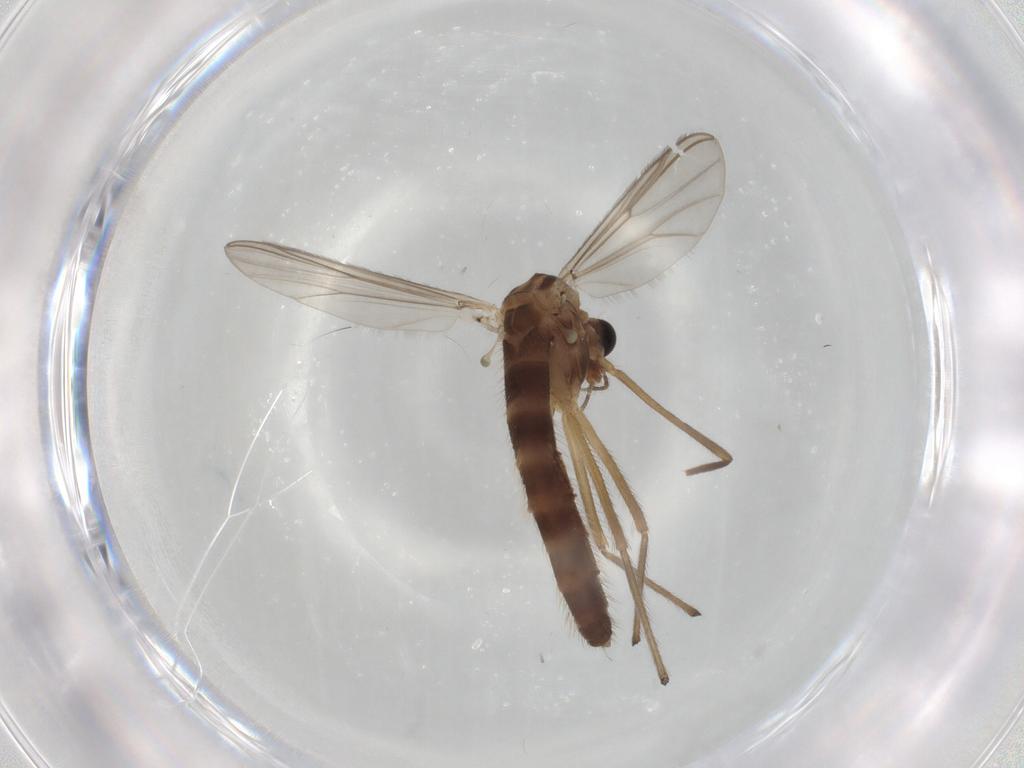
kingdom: Animalia
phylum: Arthropoda
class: Insecta
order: Diptera
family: Chironomidae
